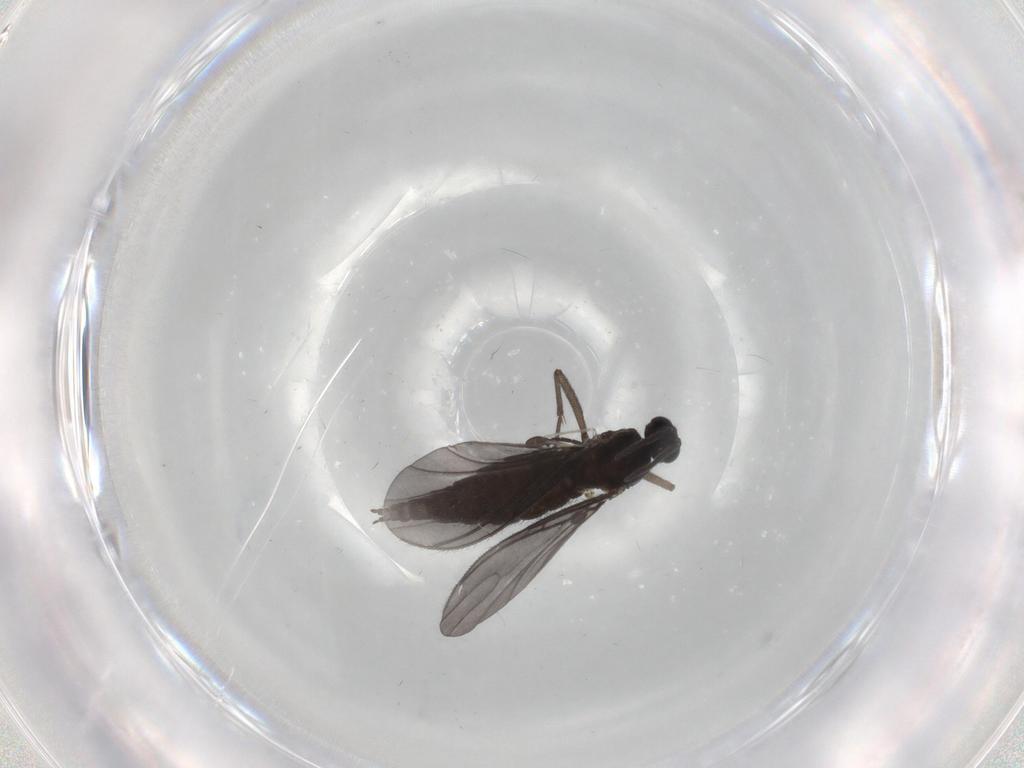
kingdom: Animalia
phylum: Arthropoda
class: Insecta
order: Diptera
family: Sciaridae
